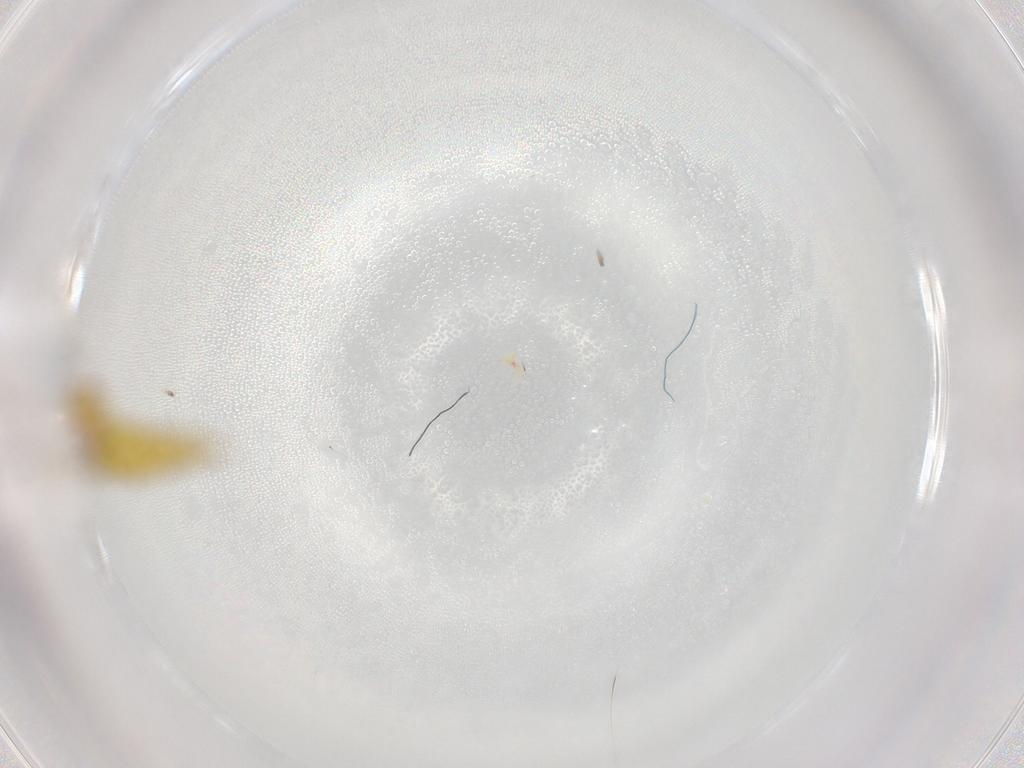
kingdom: Animalia
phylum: Arthropoda
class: Insecta
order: Hemiptera
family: Cicadellidae
